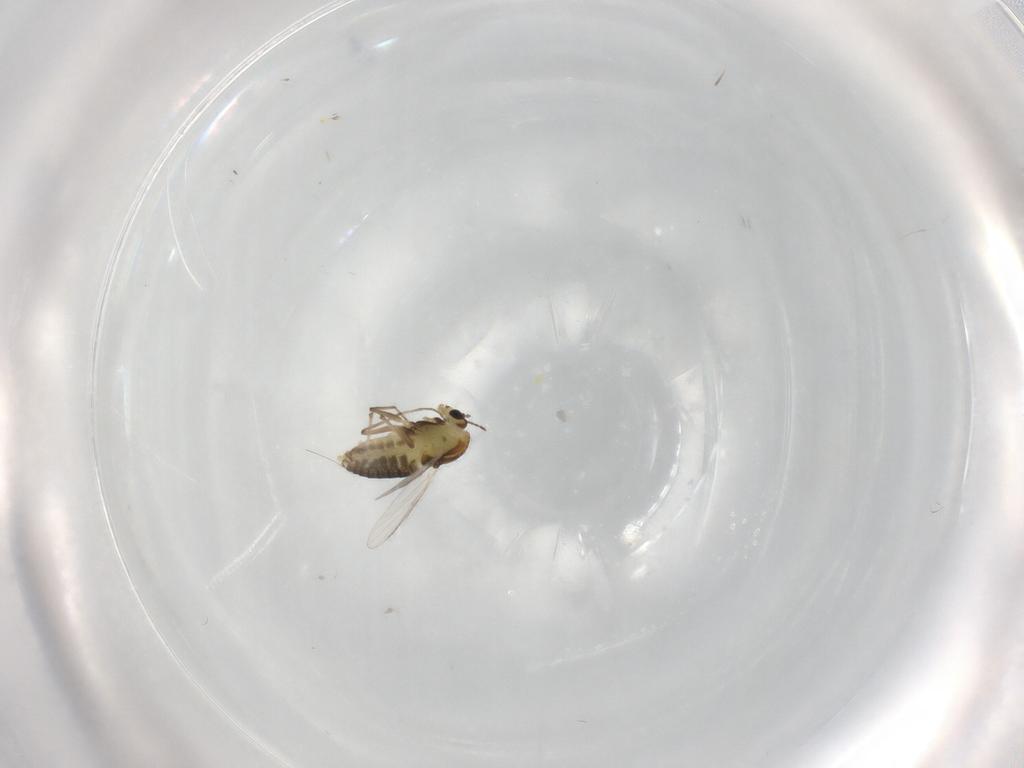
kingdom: Animalia
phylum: Arthropoda
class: Insecta
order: Diptera
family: Chironomidae
